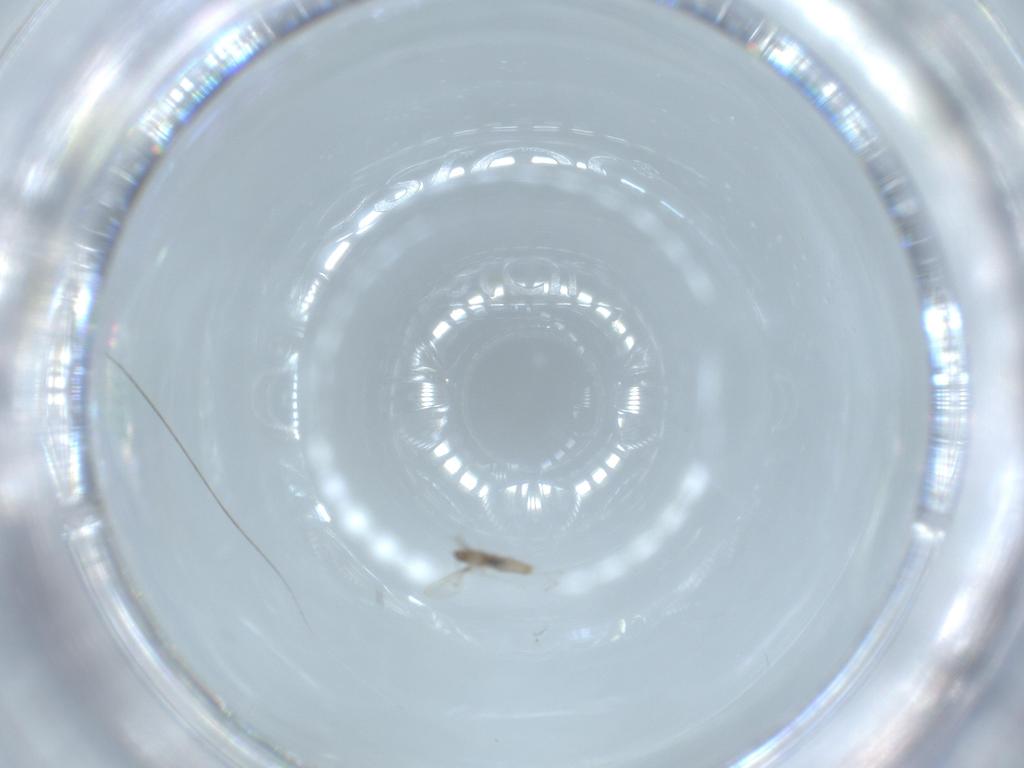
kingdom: Animalia
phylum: Arthropoda
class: Insecta
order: Diptera
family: Cecidomyiidae
